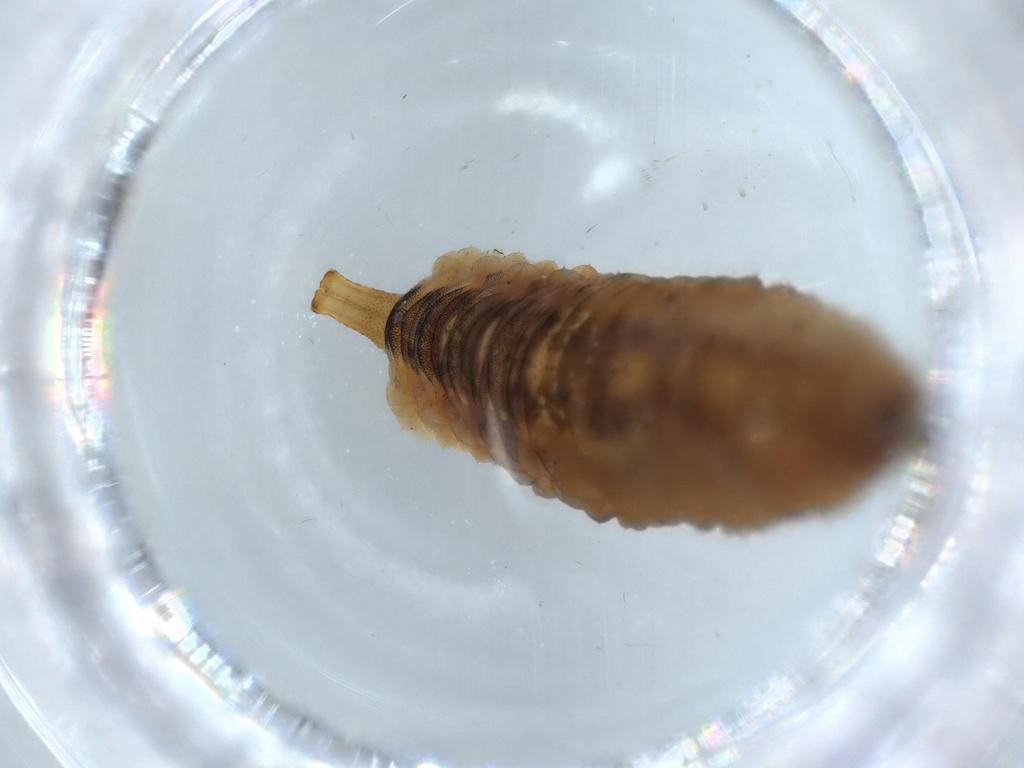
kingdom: Animalia
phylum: Arthropoda
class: Insecta
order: Diptera
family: Syrphidae
